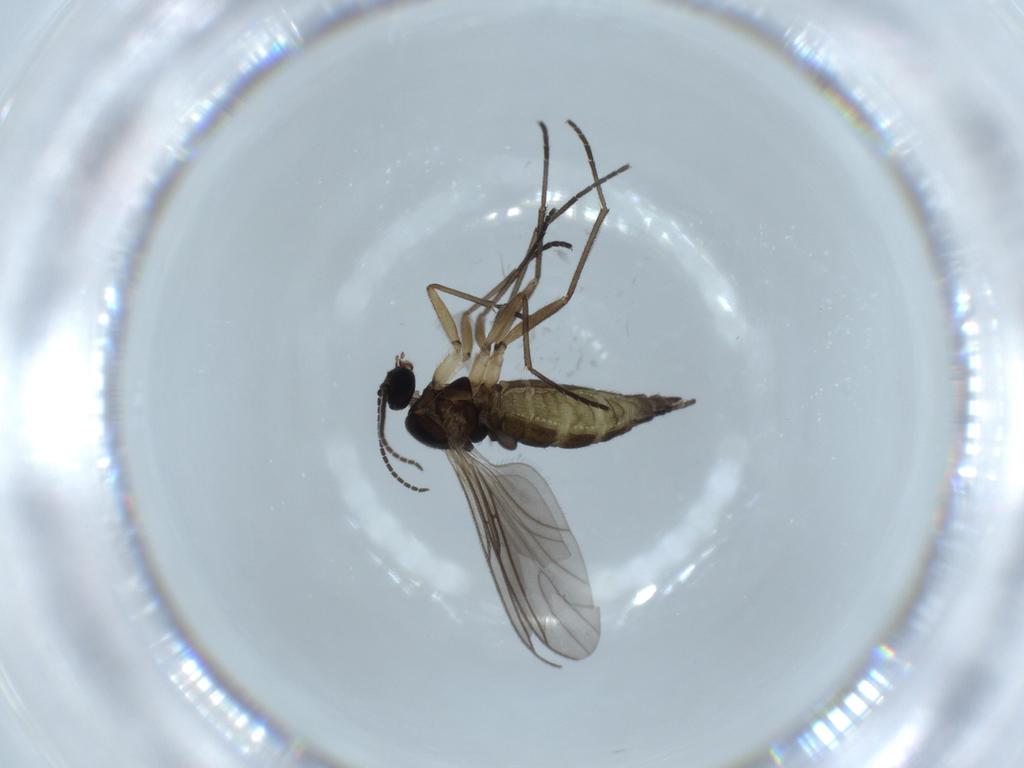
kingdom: Animalia
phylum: Arthropoda
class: Insecta
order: Diptera
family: Sciaridae
